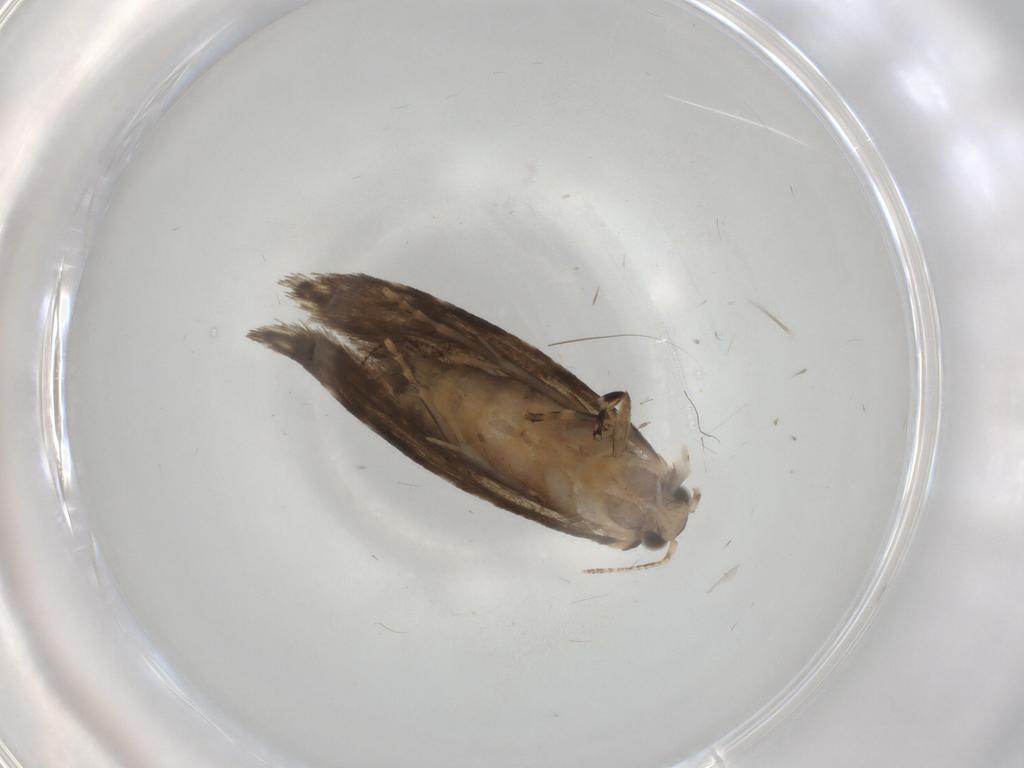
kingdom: Animalia
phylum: Arthropoda
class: Insecta
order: Lepidoptera
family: Tineidae
